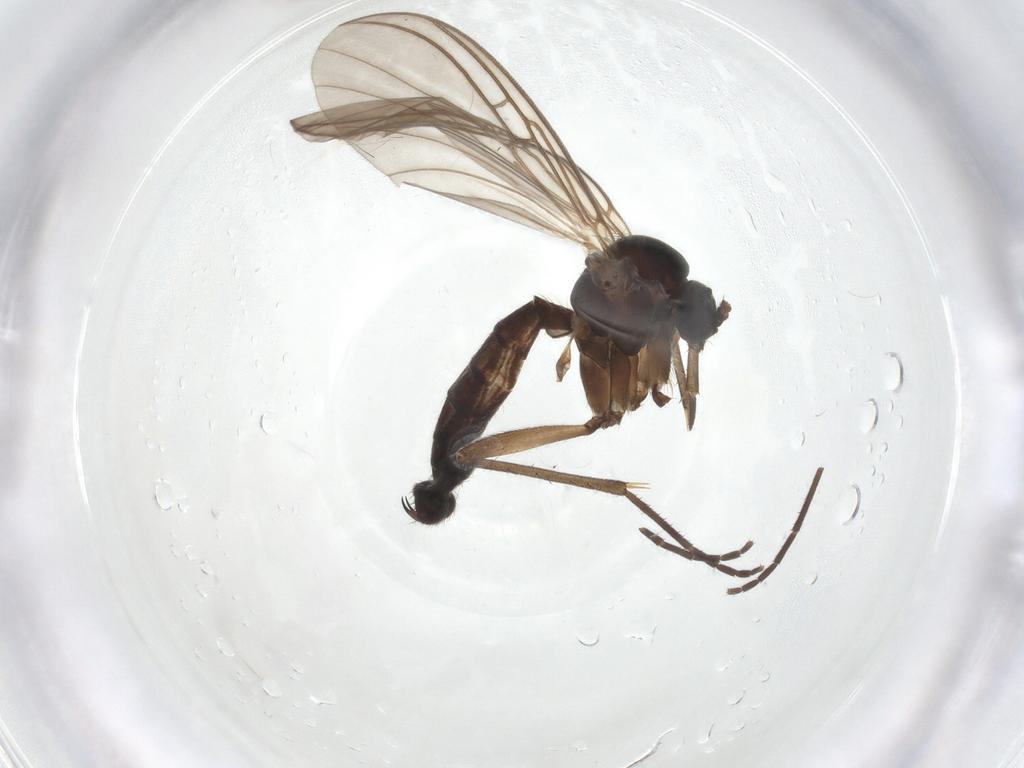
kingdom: Animalia
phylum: Arthropoda
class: Insecta
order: Diptera
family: Mycetophilidae
